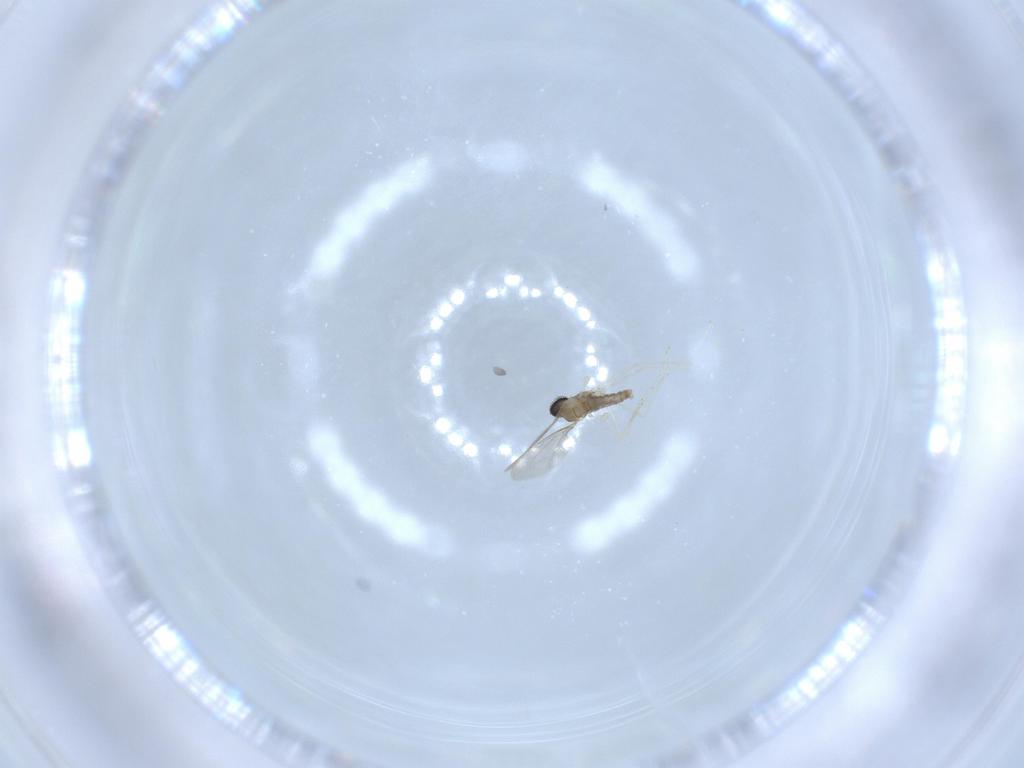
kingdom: Animalia
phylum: Arthropoda
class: Insecta
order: Diptera
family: Cecidomyiidae
